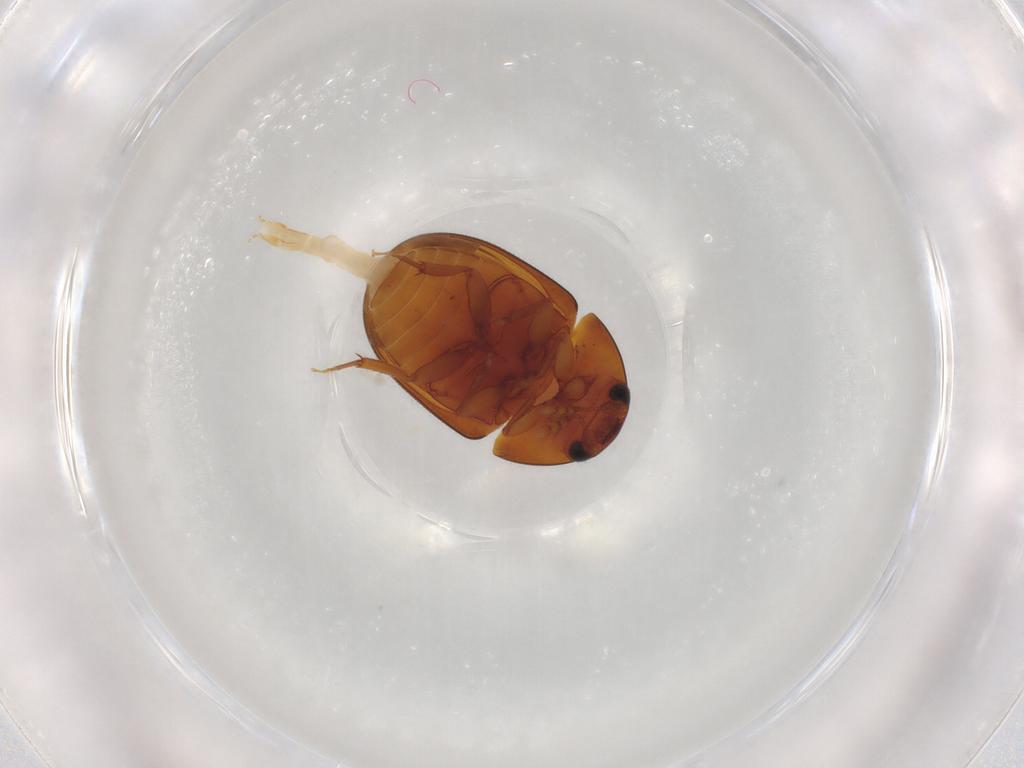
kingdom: Animalia
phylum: Arthropoda
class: Insecta
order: Coleoptera
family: Phalacridae
